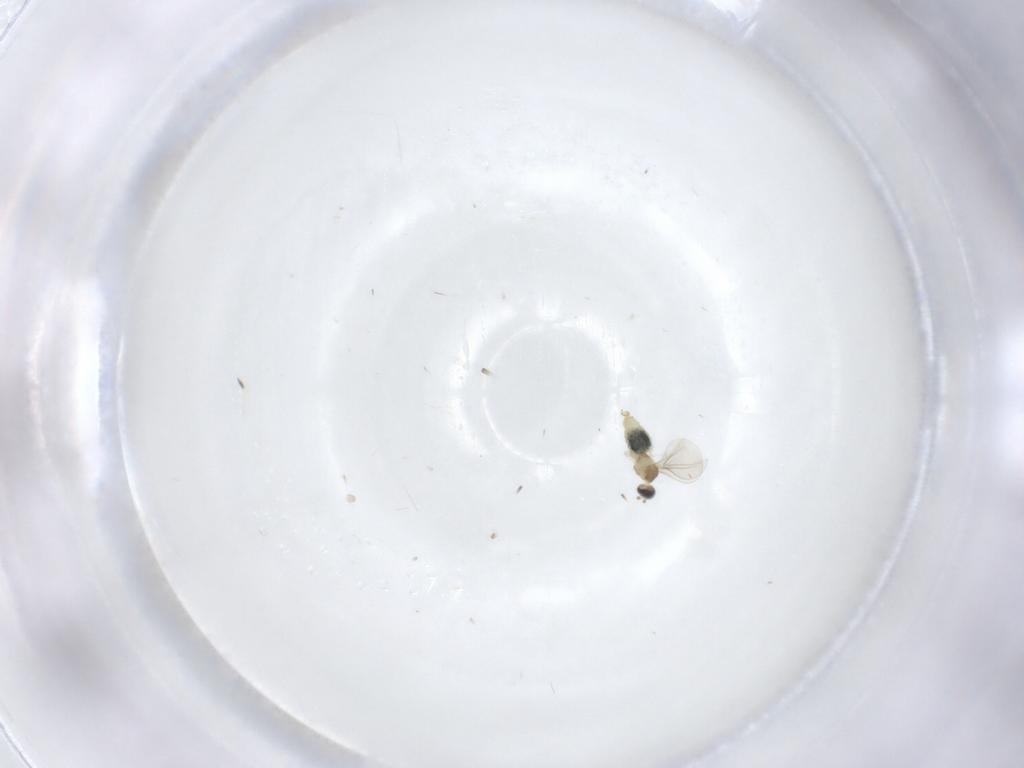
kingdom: Animalia
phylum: Arthropoda
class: Insecta
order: Diptera
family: Cecidomyiidae
